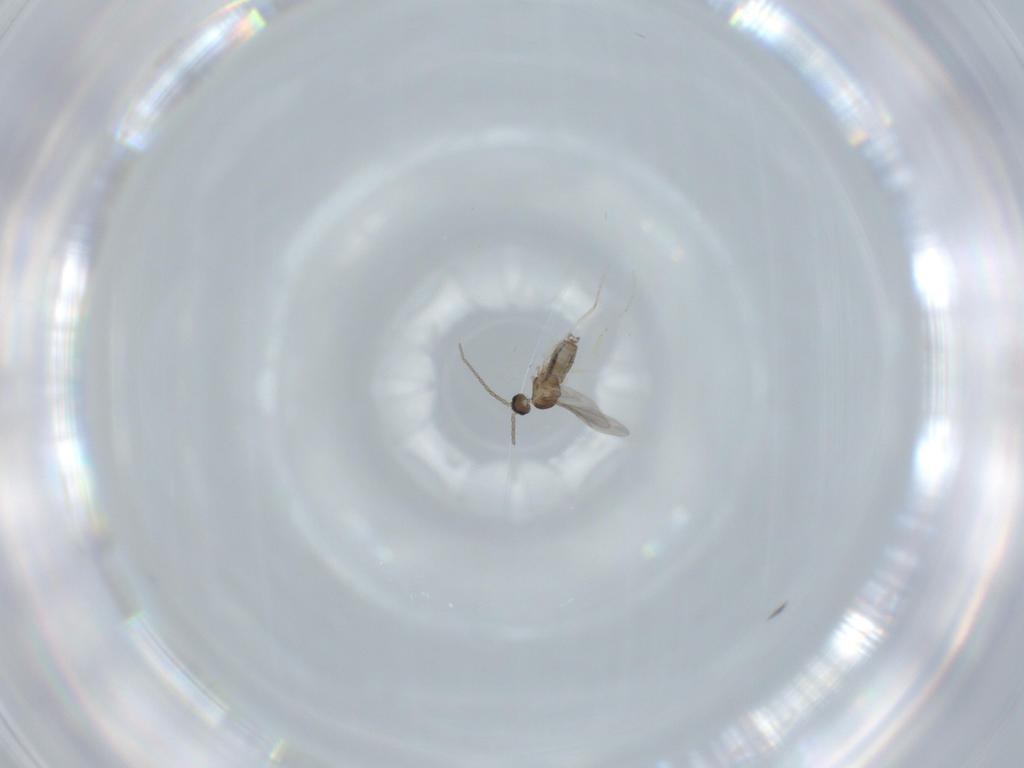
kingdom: Animalia
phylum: Arthropoda
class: Insecta
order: Diptera
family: Cecidomyiidae
